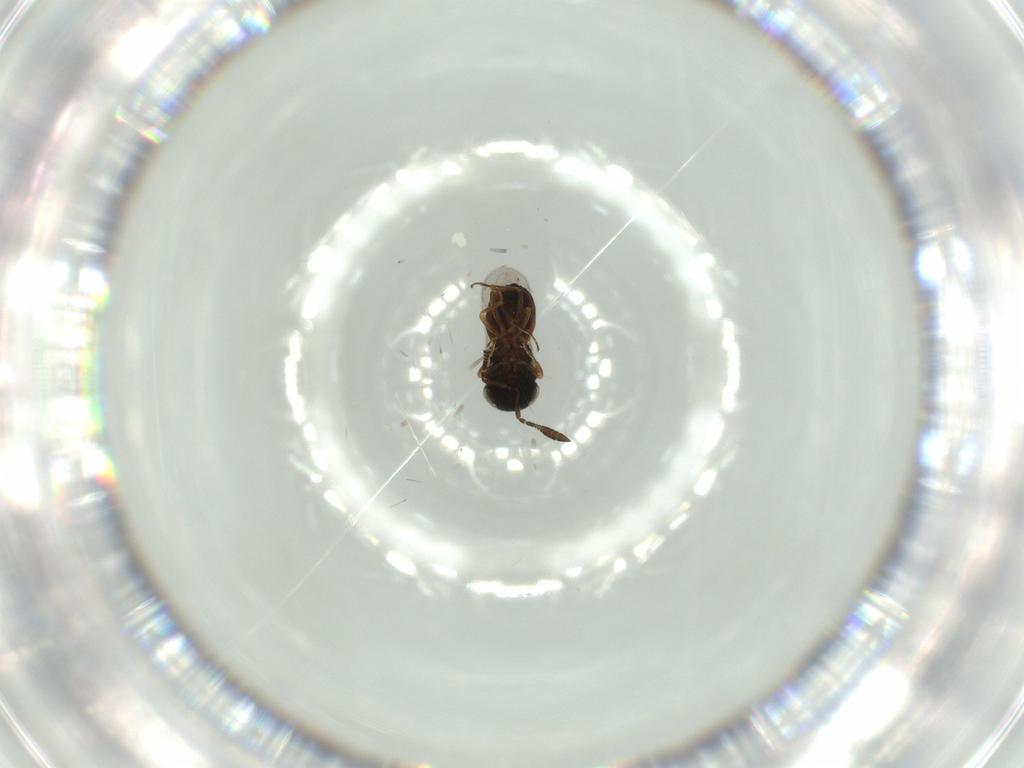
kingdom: Animalia
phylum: Arthropoda
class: Insecta
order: Hymenoptera
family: Scelionidae
